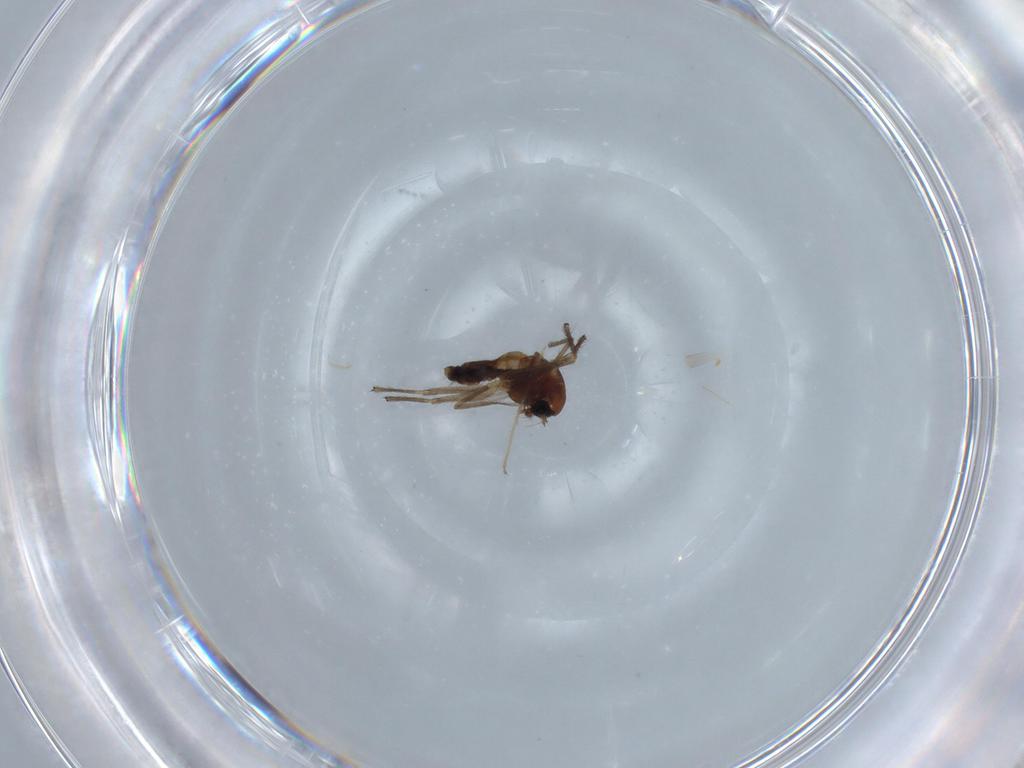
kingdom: Animalia
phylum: Arthropoda
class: Insecta
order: Diptera
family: Chironomidae
